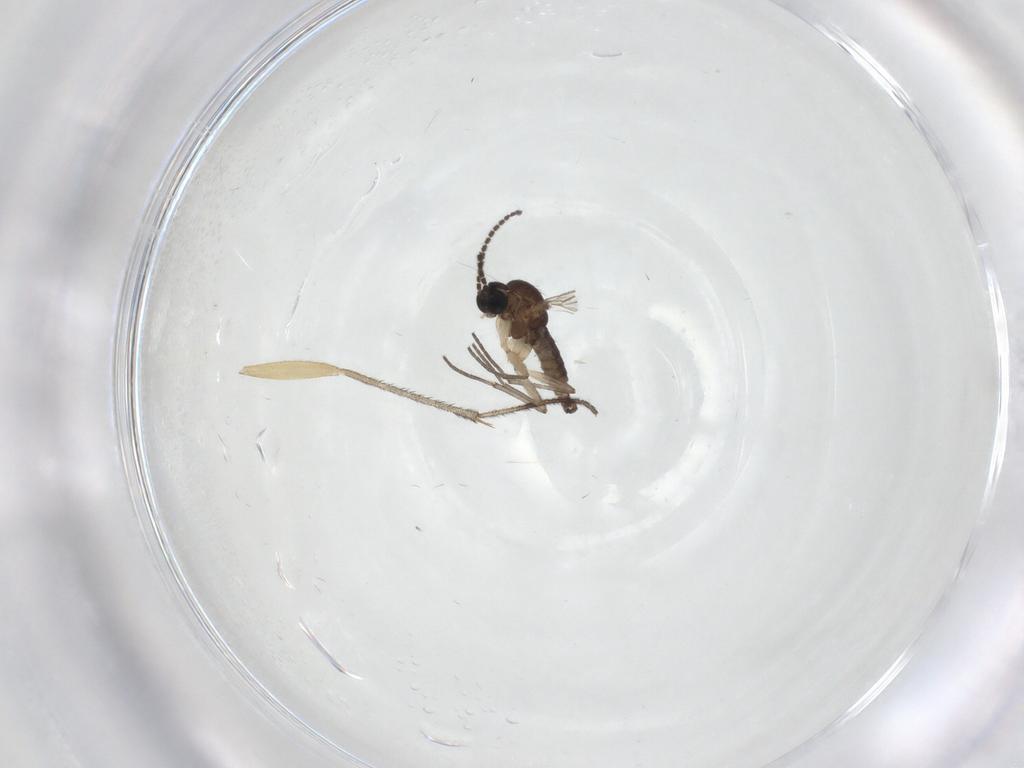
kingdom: Animalia
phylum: Arthropoda
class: Insecta
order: Diptera
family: Sciaridae
